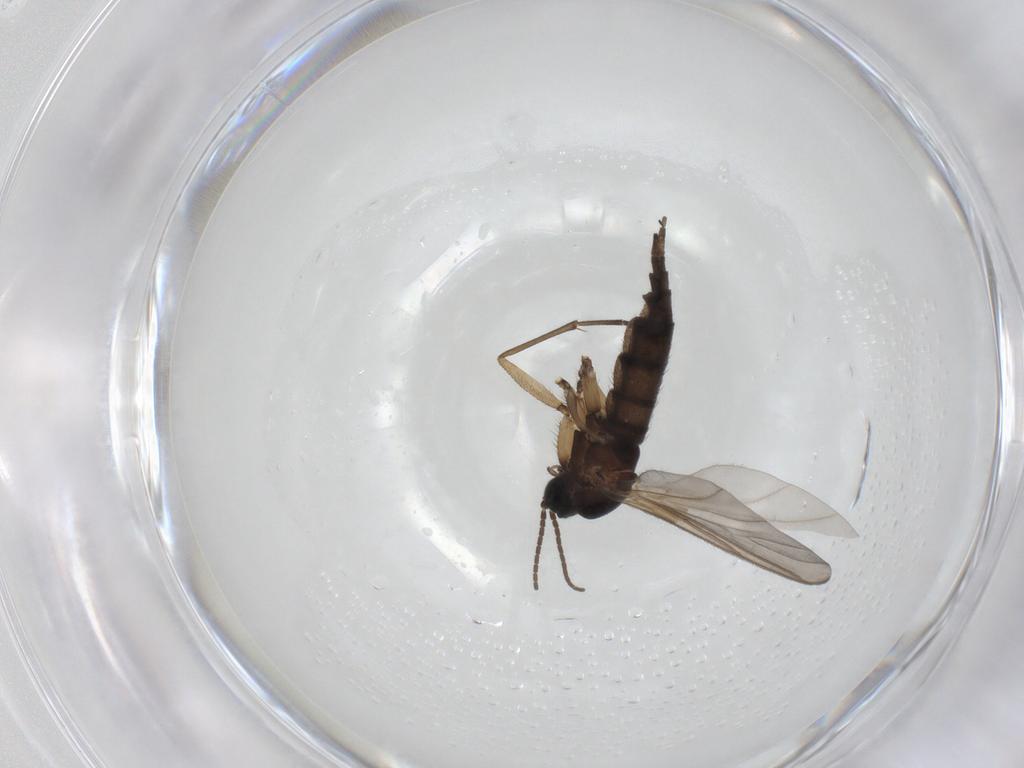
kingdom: Animalia
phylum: Arthropoda
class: Insecta
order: Diptera
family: Sciaridae
